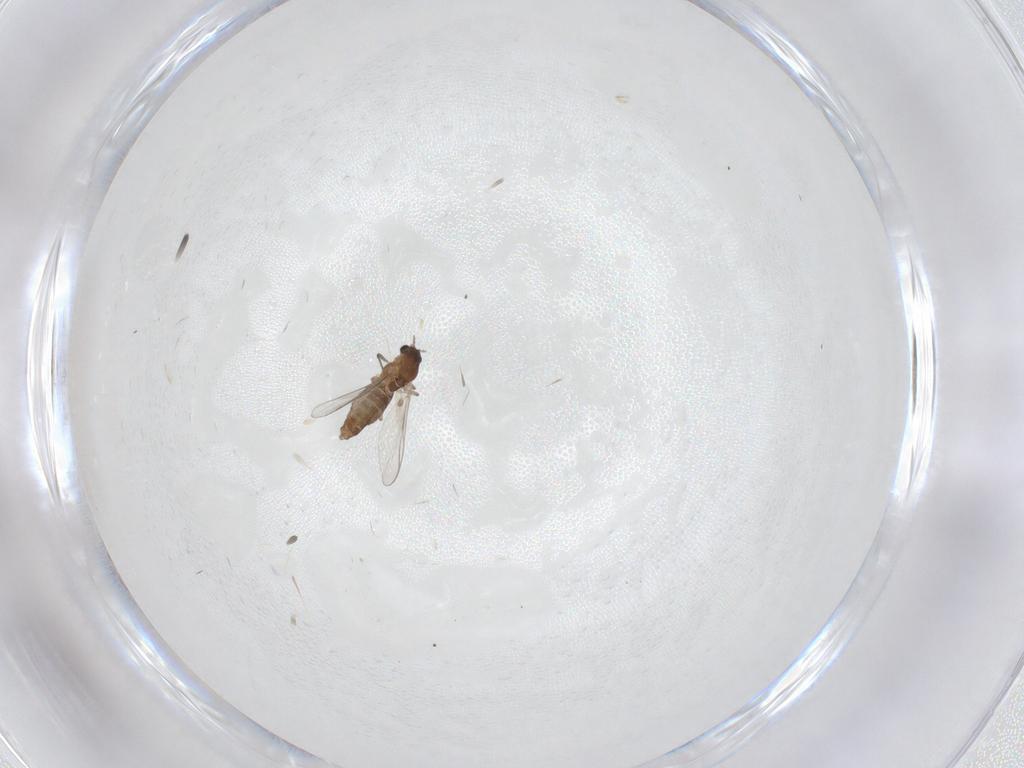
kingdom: Animalia
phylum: Arthropoda
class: Insecta
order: Diptera
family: Chironomidae
